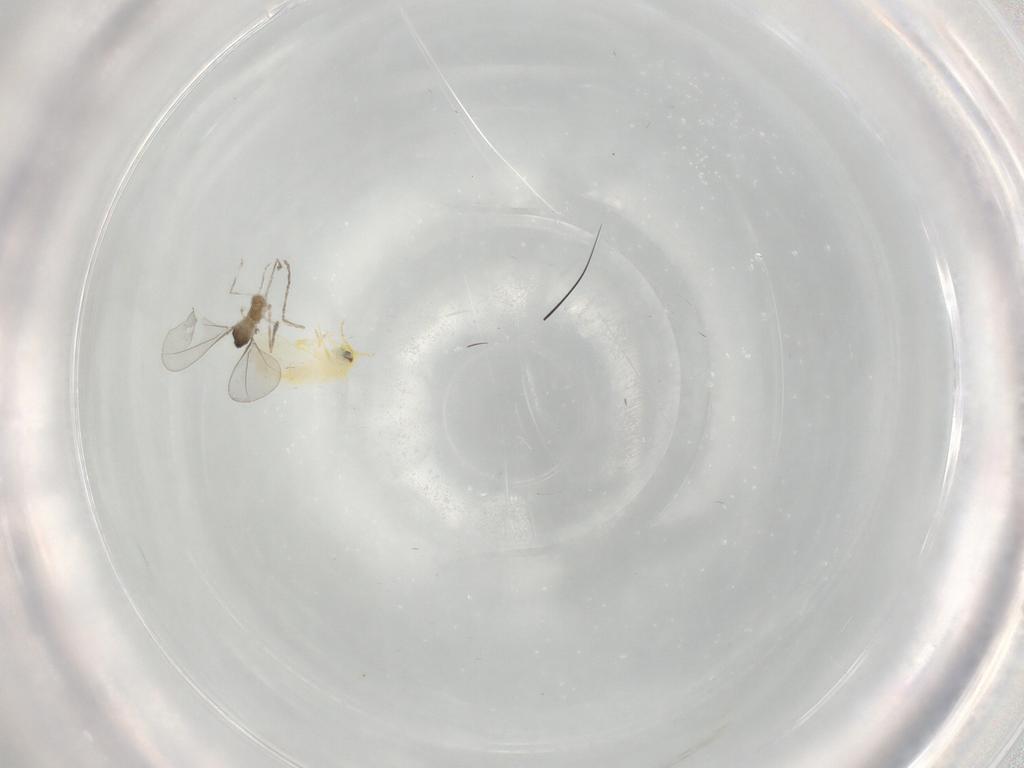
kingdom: Animalia
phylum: Arthropoda
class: Insecta
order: Diptera
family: Cecidomyiidae
